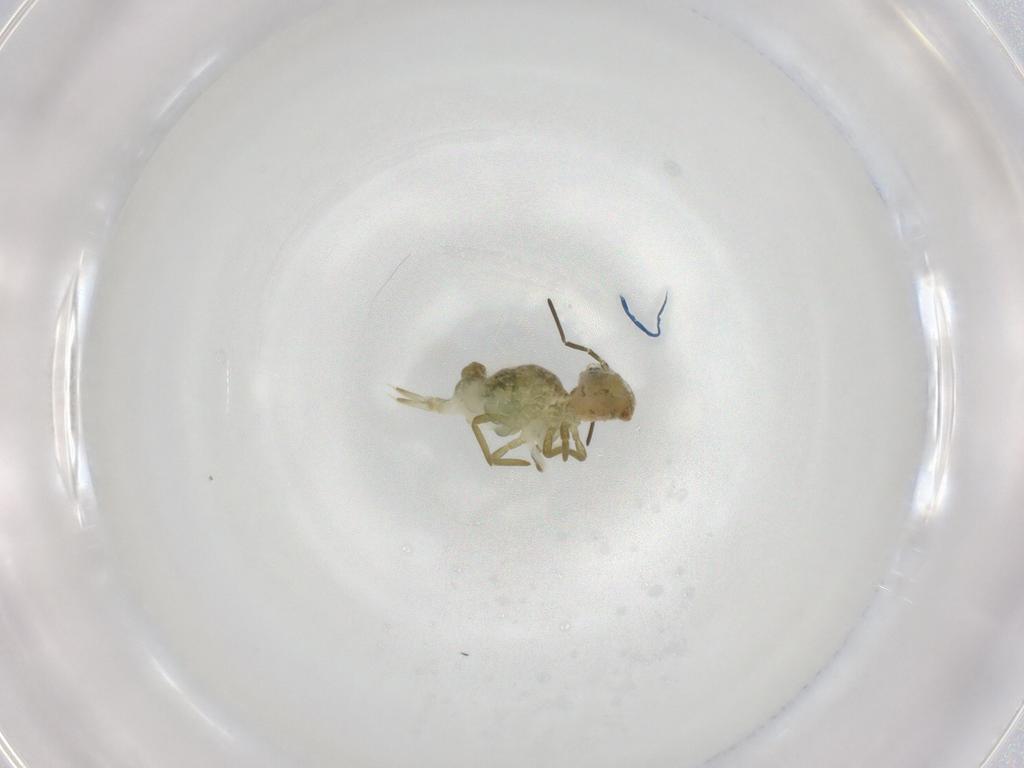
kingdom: Animalia
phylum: Arthropoda
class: Collembola
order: Symphypleona
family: Sminthuridae
